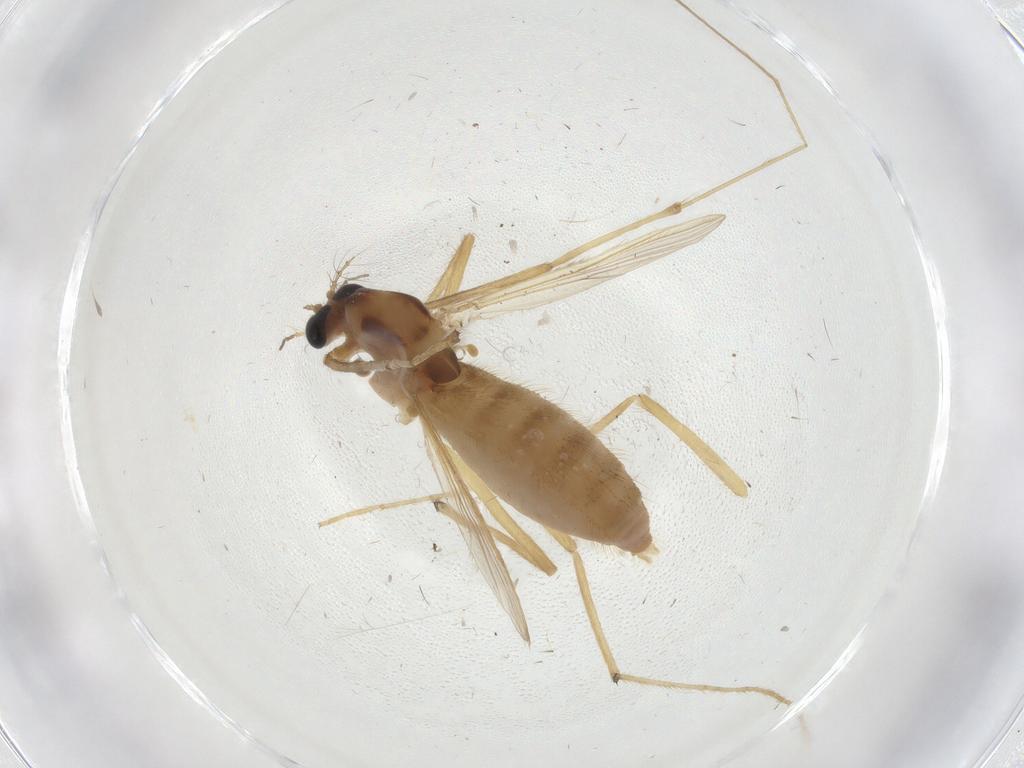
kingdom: Animalia
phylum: Arthropoda
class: Insecta
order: Diptera
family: Chironomidae
